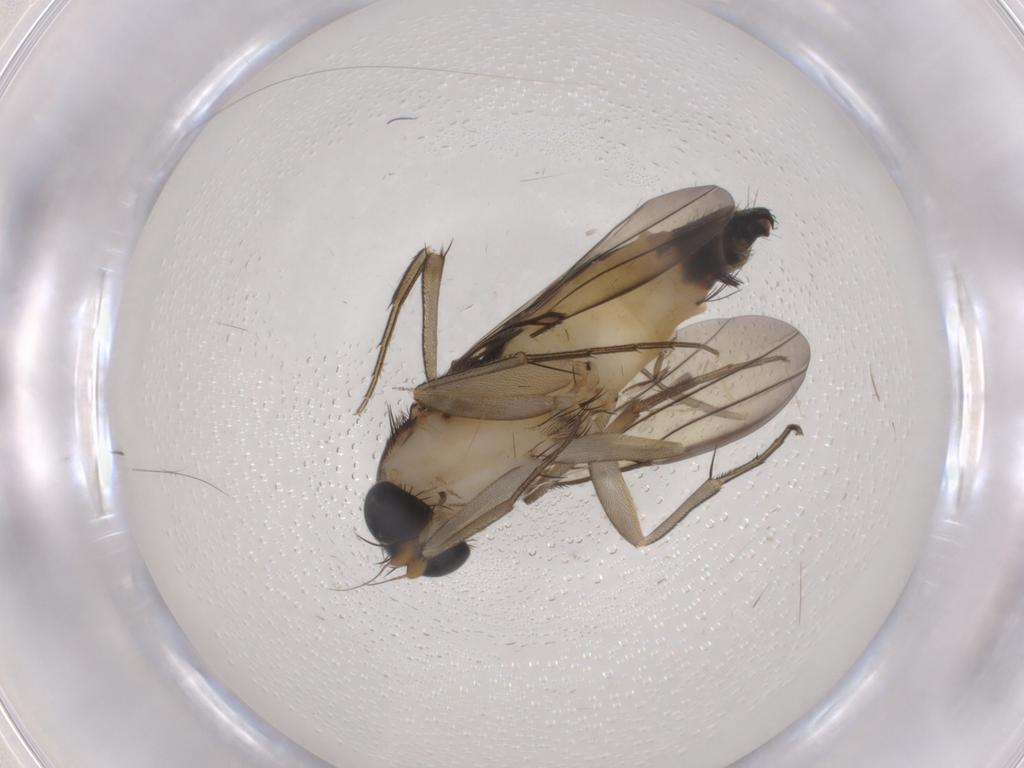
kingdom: Animalia
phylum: Arthropoda
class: Insecta
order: Diptera
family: Phoridae
